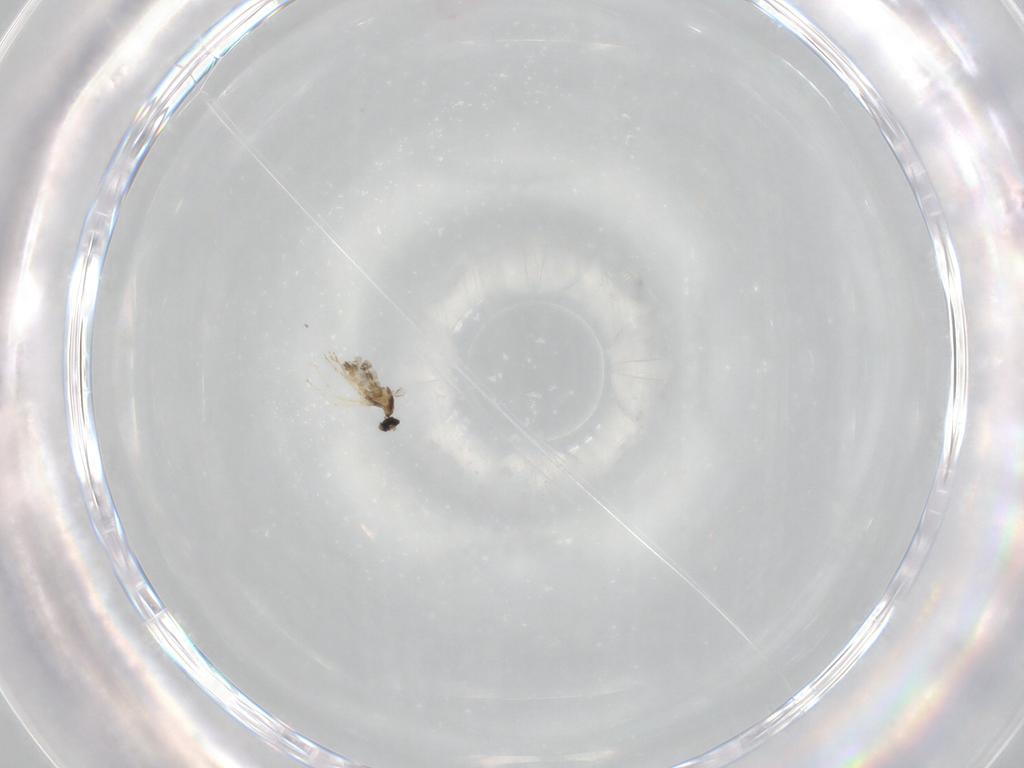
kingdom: Animalia
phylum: Arthropoda
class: Insecta
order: Diptera
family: Cecidomyiidae
